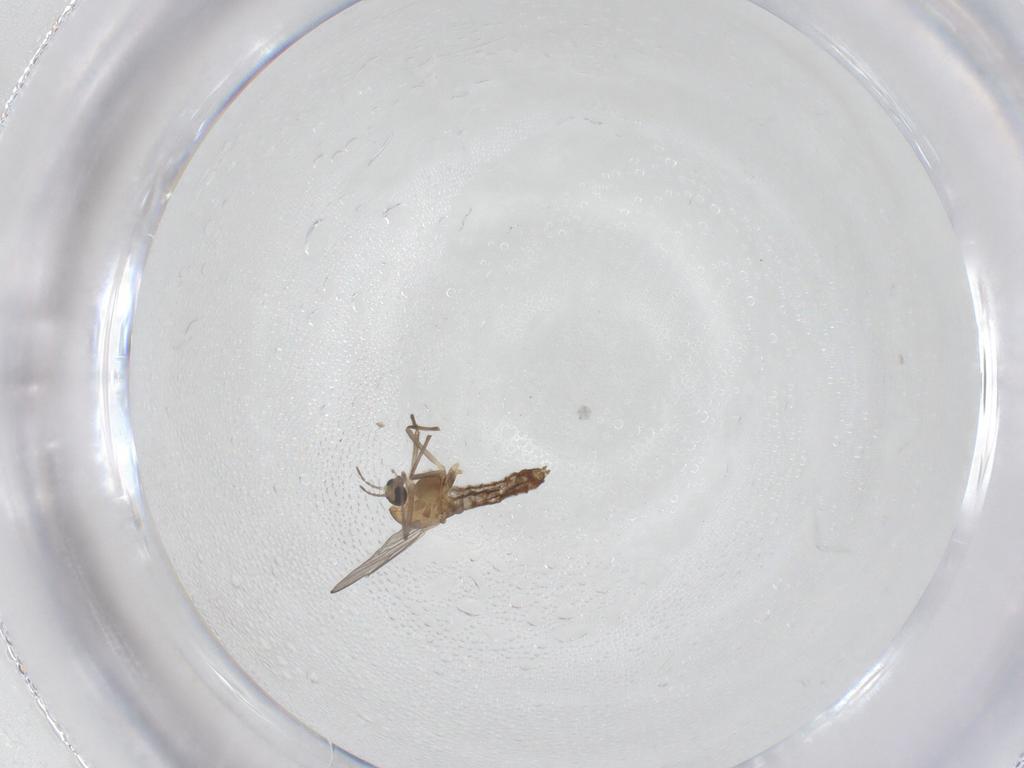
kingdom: Animalia
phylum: Arthropoda
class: Insecta
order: Diptera
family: Chironomidae
